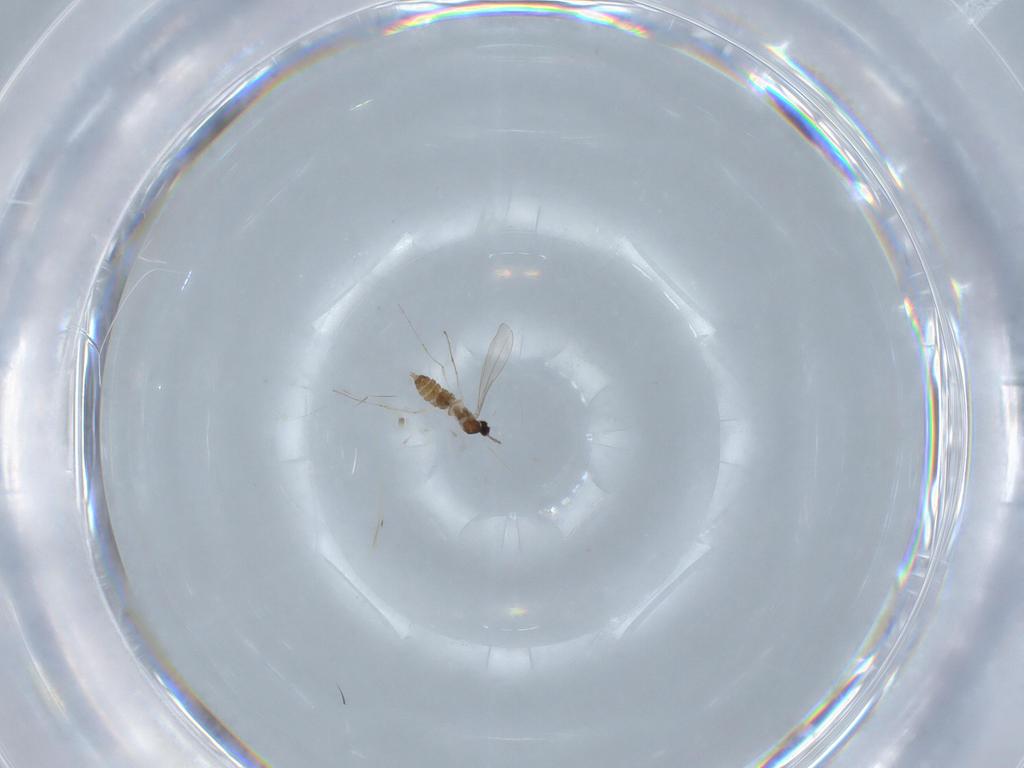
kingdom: Animalia
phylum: Arthropoda
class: Insecta
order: Diptera
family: Cecidomyiidae
